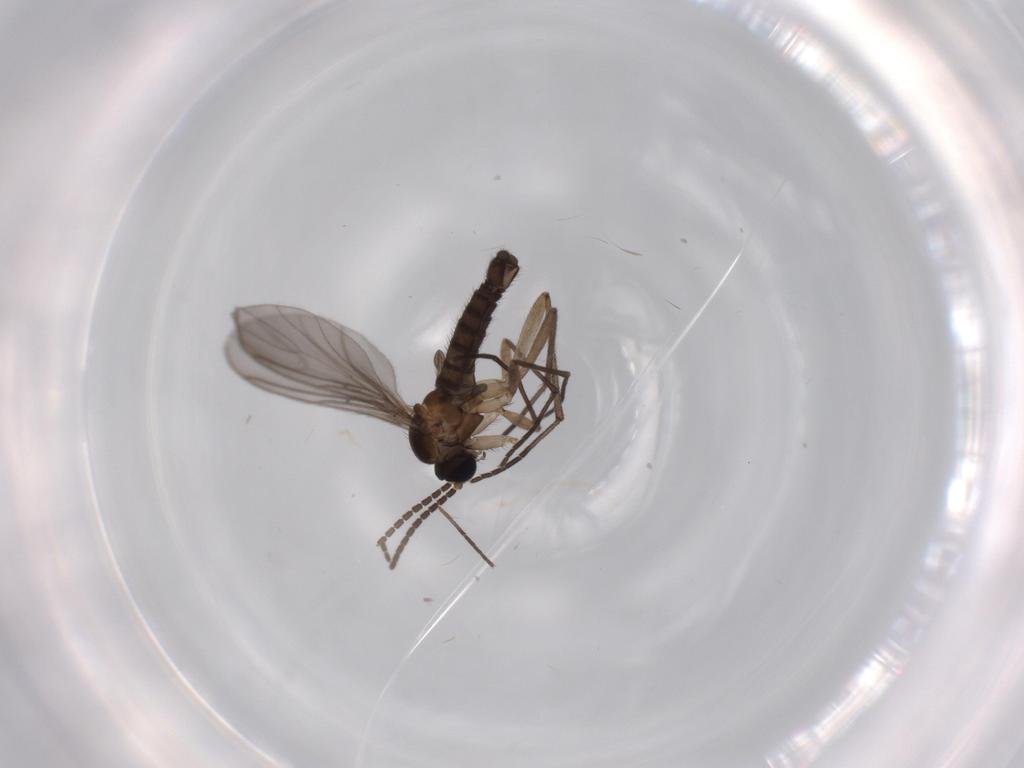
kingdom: Animalia
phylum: Arthropoda
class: Insecta
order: Diptera
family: Sciaridae
